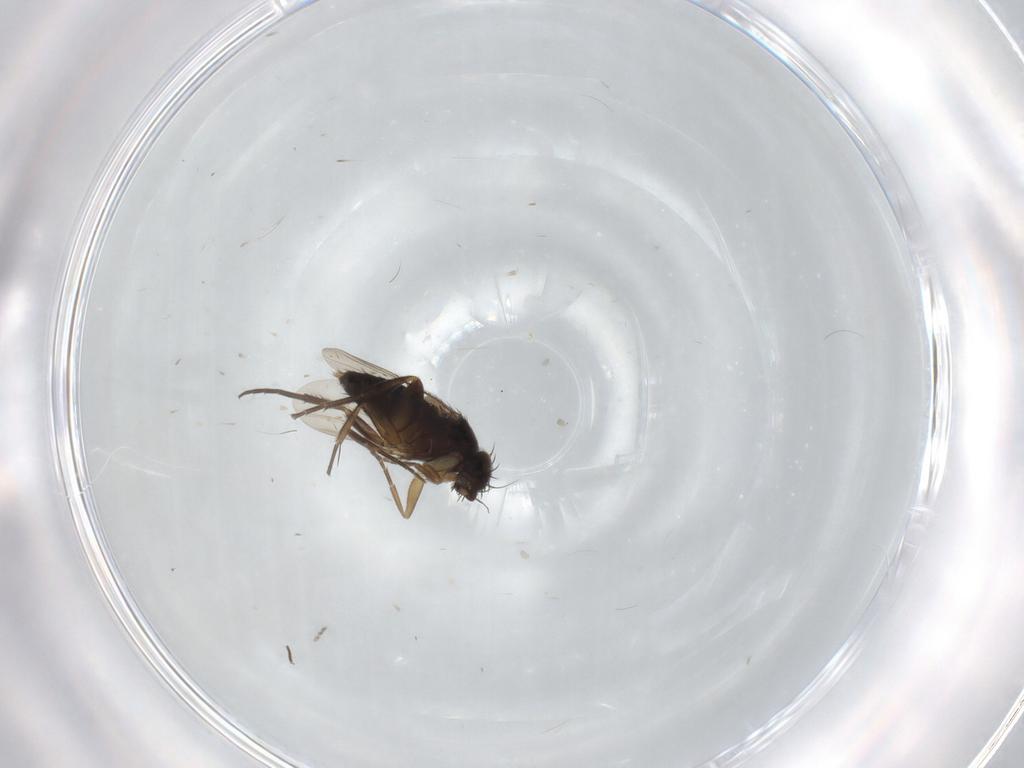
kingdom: Animalia
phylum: Arthropoda
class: Insecta
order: Diptera
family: Phoridae
